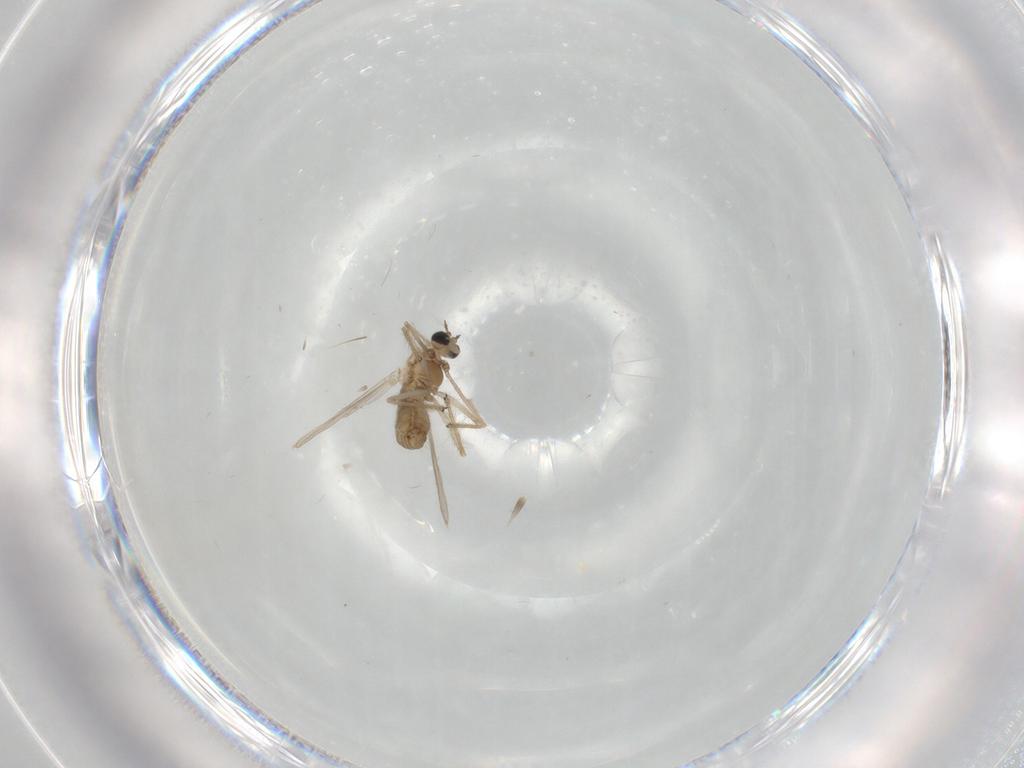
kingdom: Animalia
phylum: Arthropoda
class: Insecta
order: Diptera
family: Chironomidae
